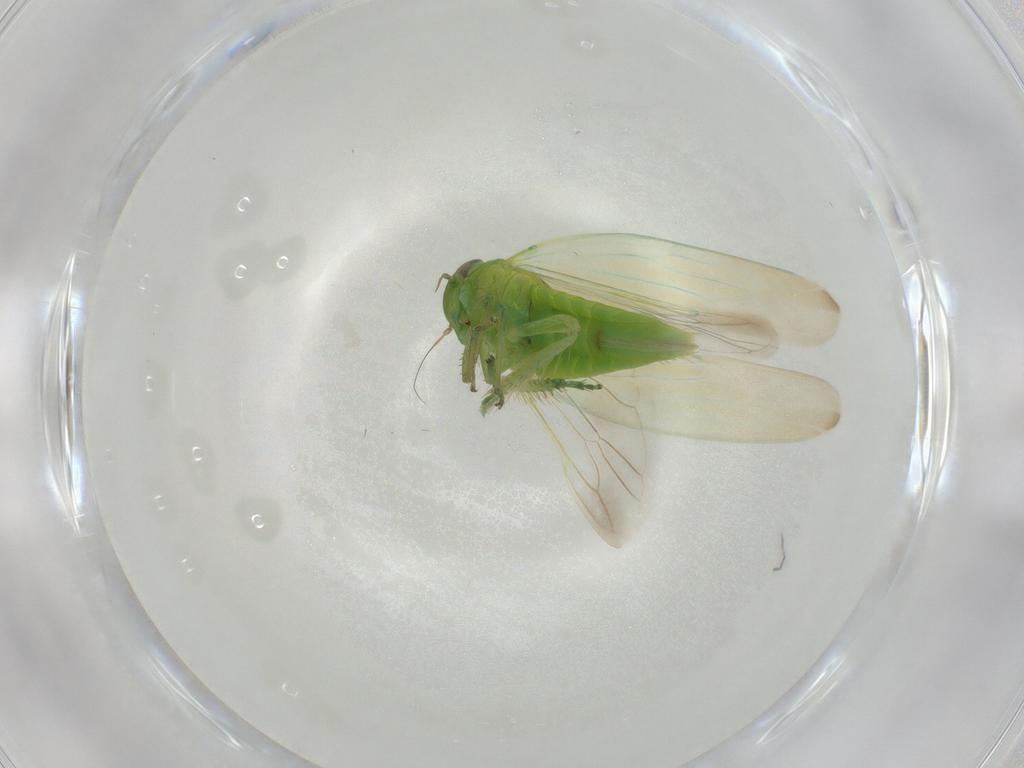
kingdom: Animalia
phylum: Arthropoda
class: Insecta
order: Hemiptera
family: Cicadellidae
